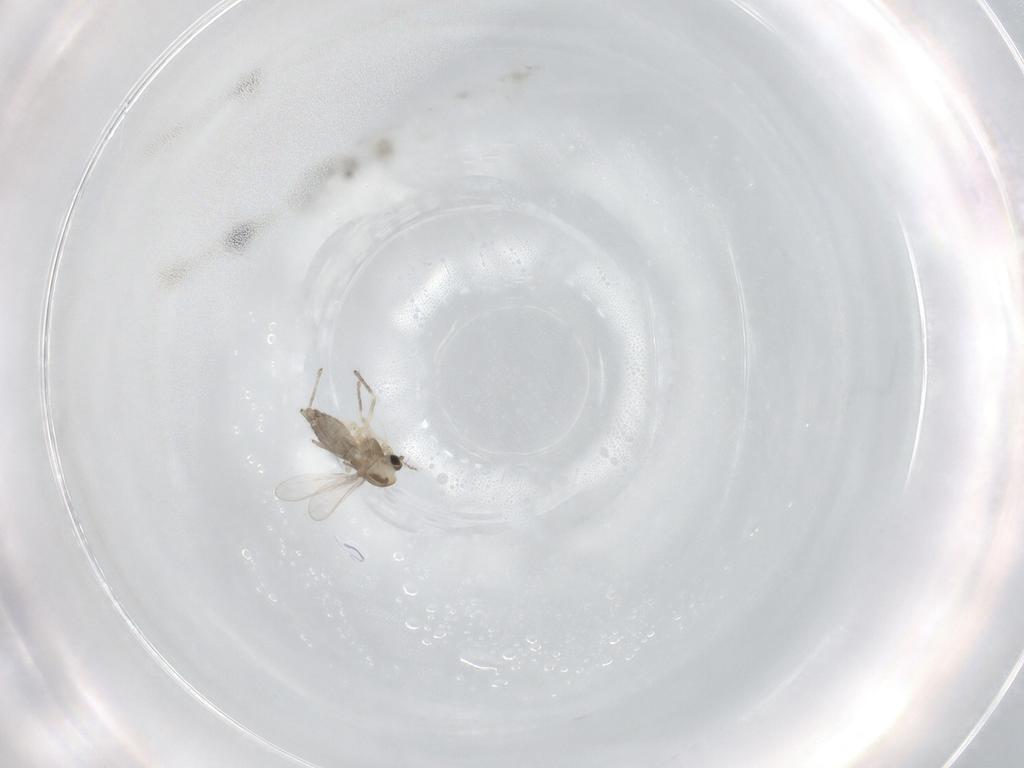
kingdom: Animalia
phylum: Arthropoda
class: Insecta
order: Diptera
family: Chironomidae
